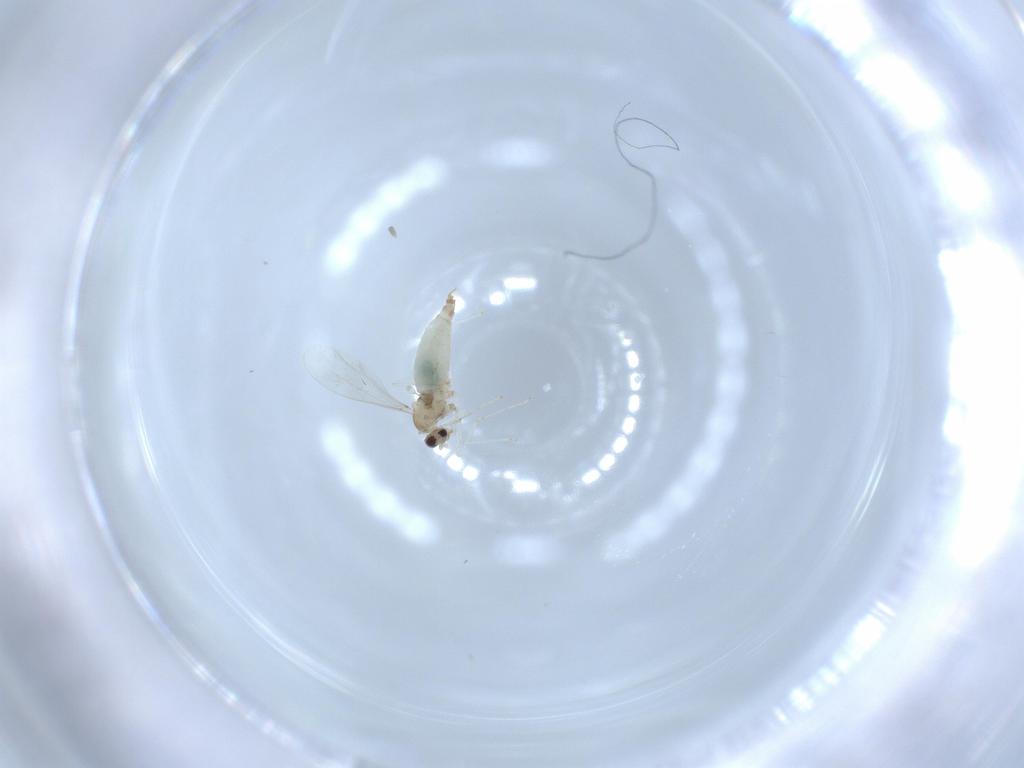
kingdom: Animalia
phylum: Arthropoda
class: Insecta
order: Diptera
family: Cecidomyiidae
